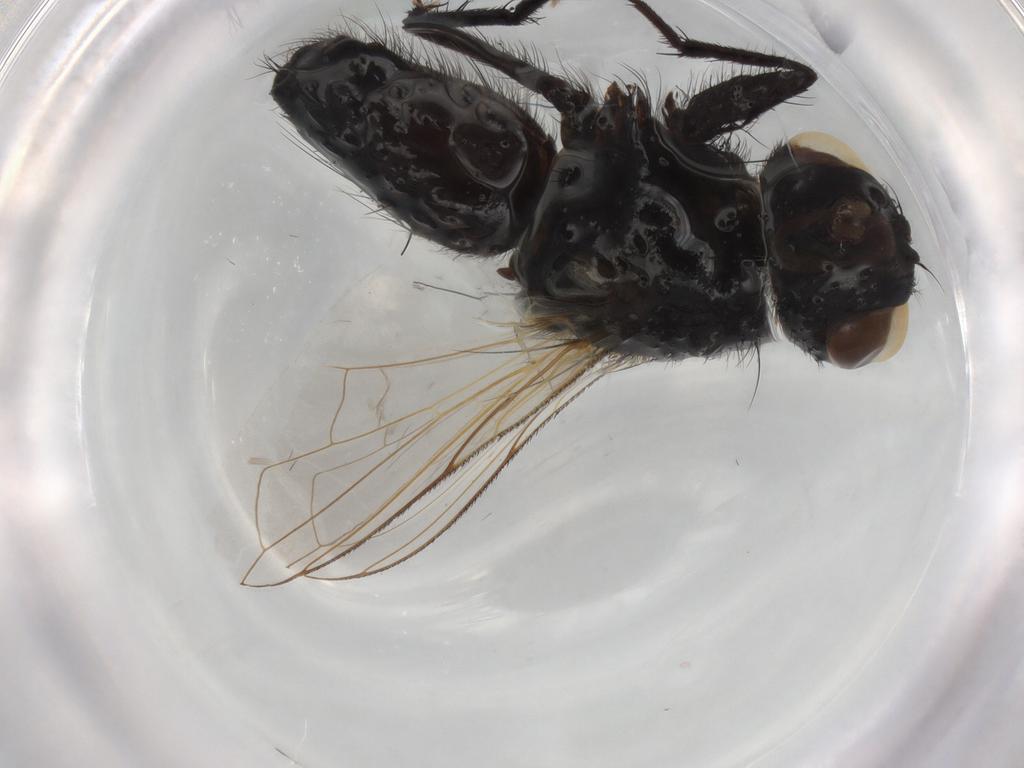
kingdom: Animalia
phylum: Arthropoda
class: Insecta
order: Diptera
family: Tachinidae
